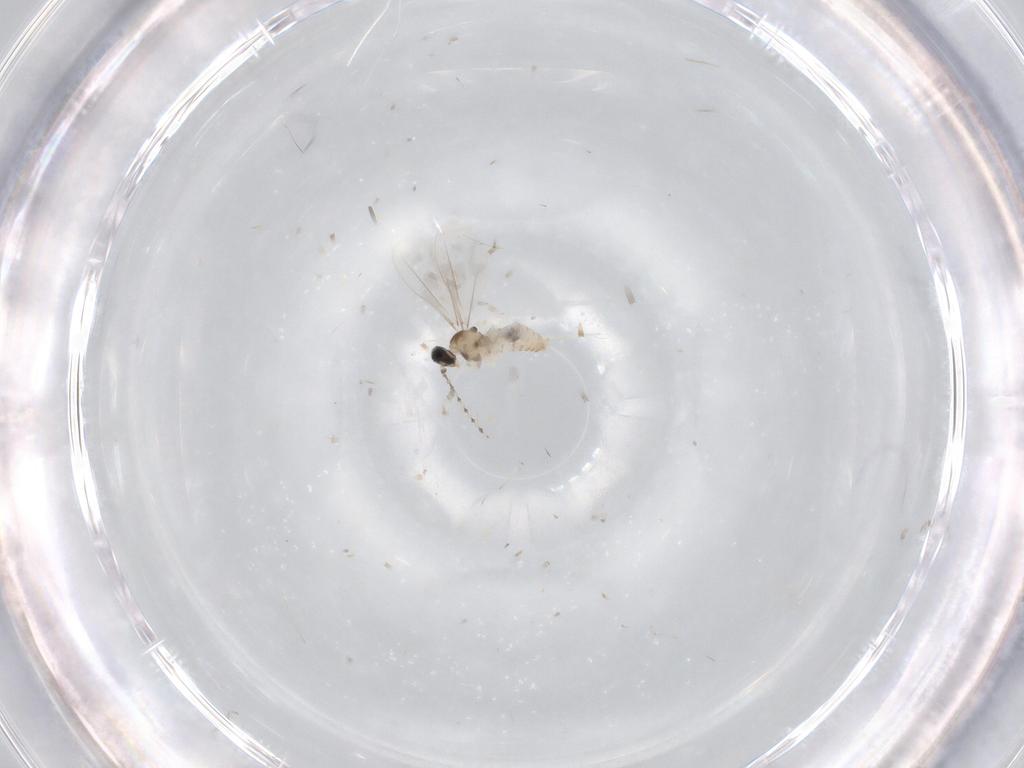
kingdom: Animalia
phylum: Arthropoda
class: Insecta
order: Diptera
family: Cecidomyiidae
